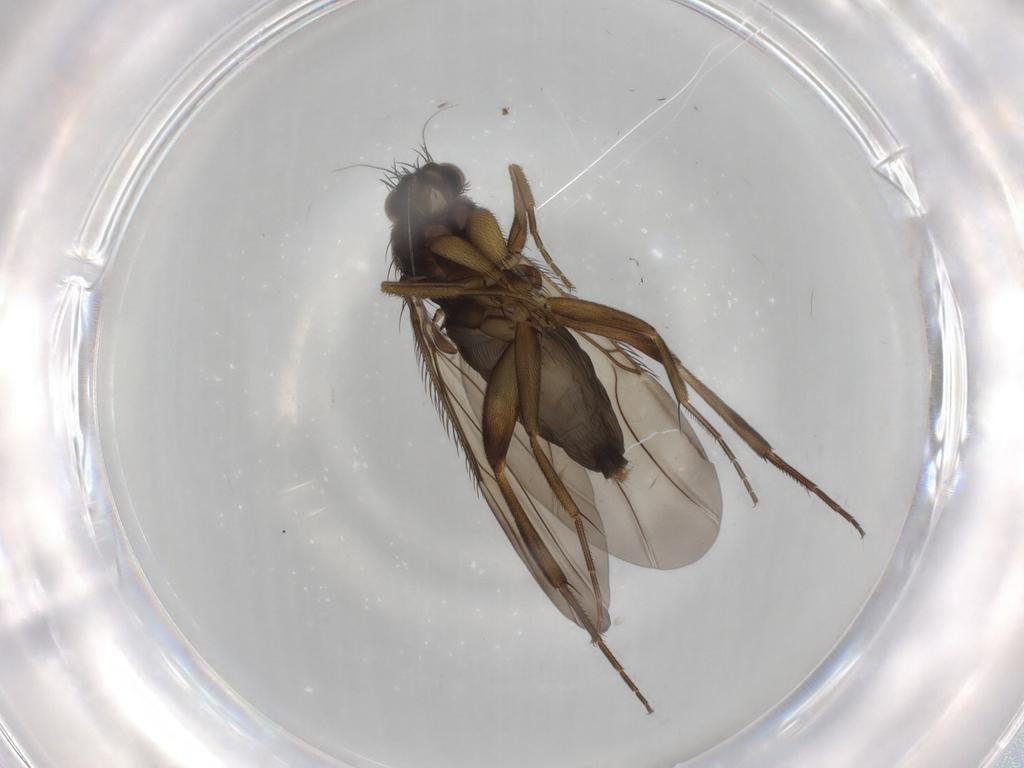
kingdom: Animalia
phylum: Arthropoda
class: Insecta
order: Diptera
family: Phoridae
